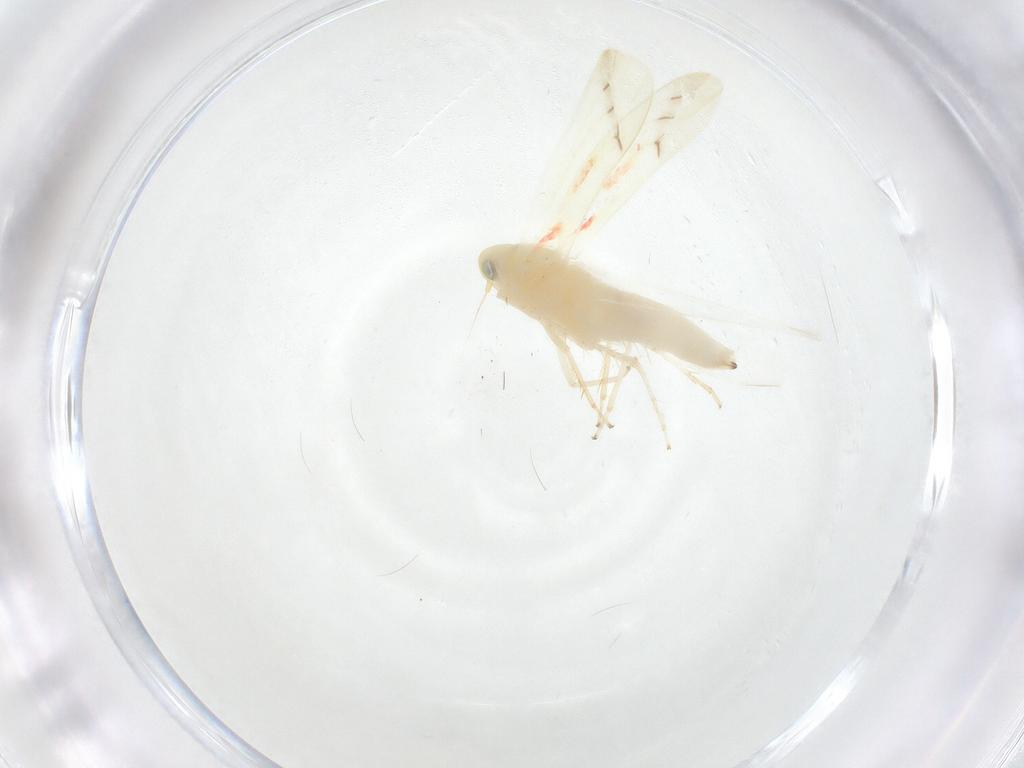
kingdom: Animalia
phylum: Arthropoda
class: Insecta
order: Hemiptera
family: Cicadellidae
